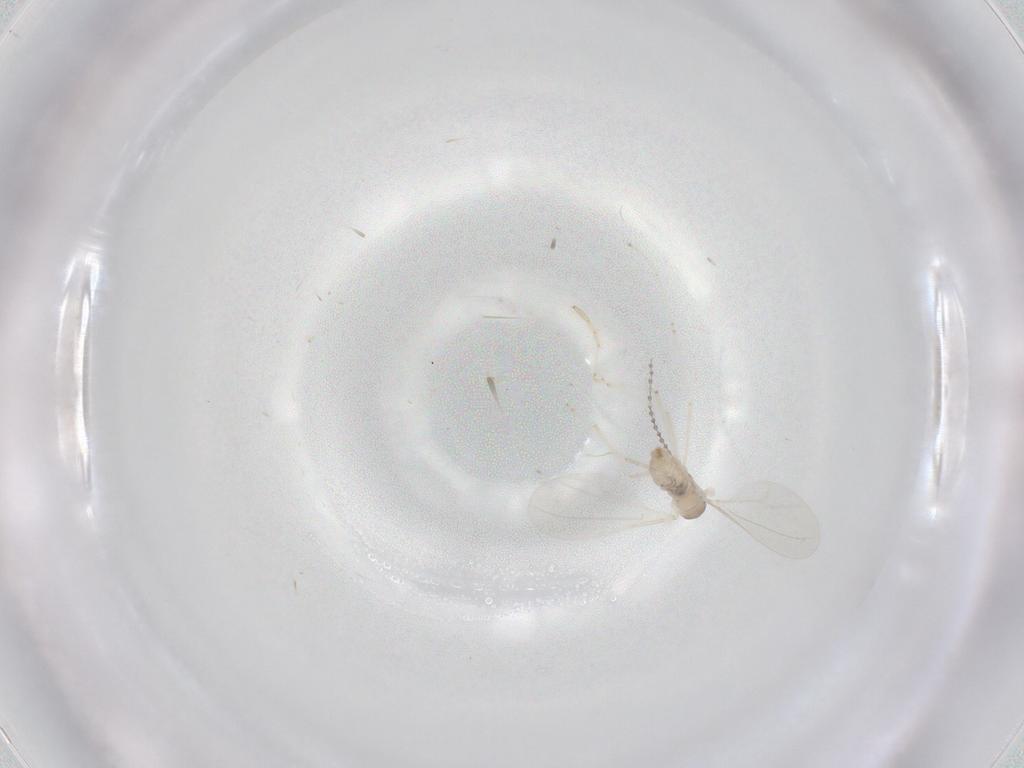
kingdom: Animalia
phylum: Arthropoda
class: Insecta
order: Diptera
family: Cecidomyiidae
